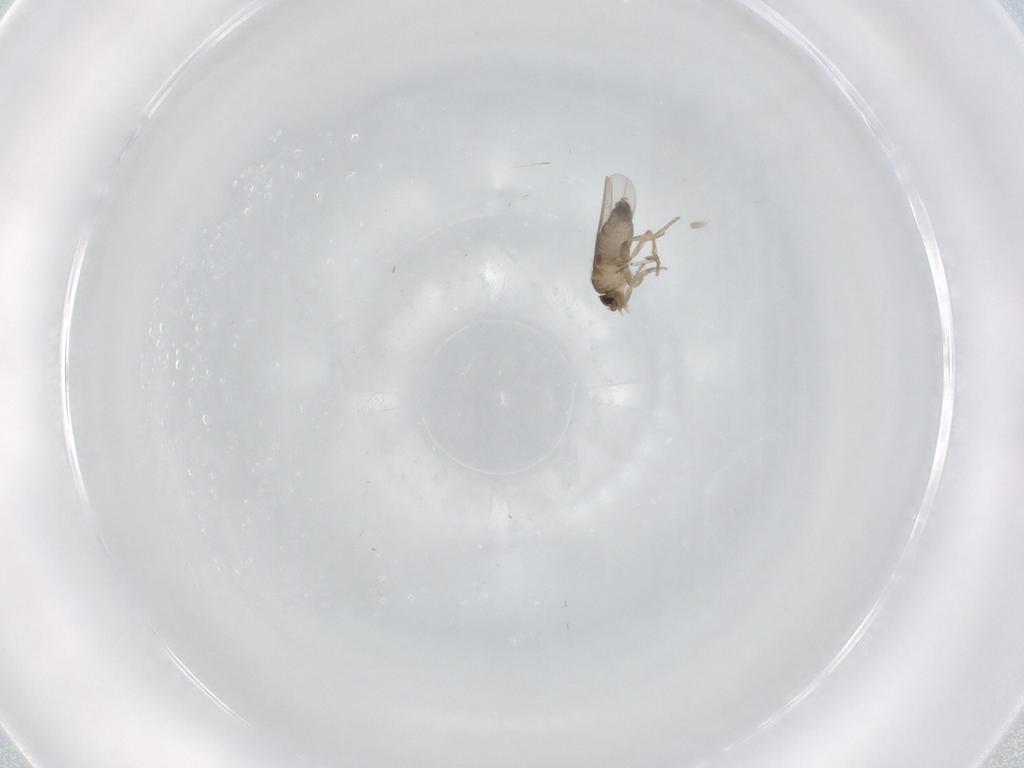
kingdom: Animalia
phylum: Arthropoda
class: Insecta
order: Diptera
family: Phoridae
